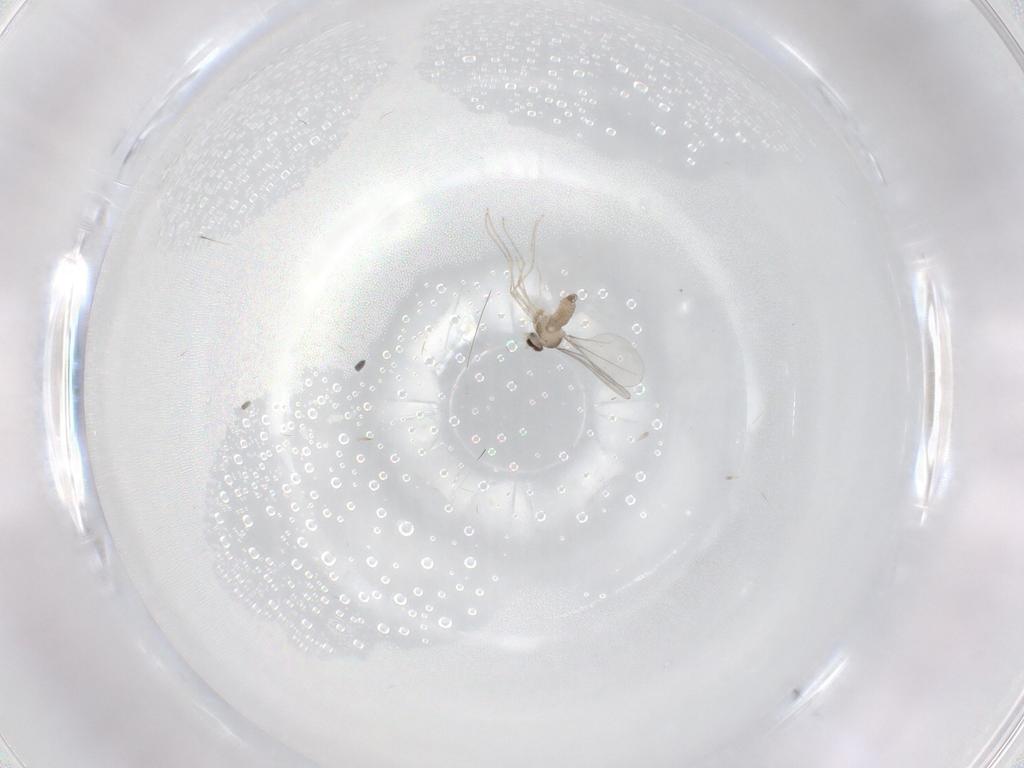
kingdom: Animalia
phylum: Arthropoda
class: Insecta
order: Diptera
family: Cecidomyiidae
